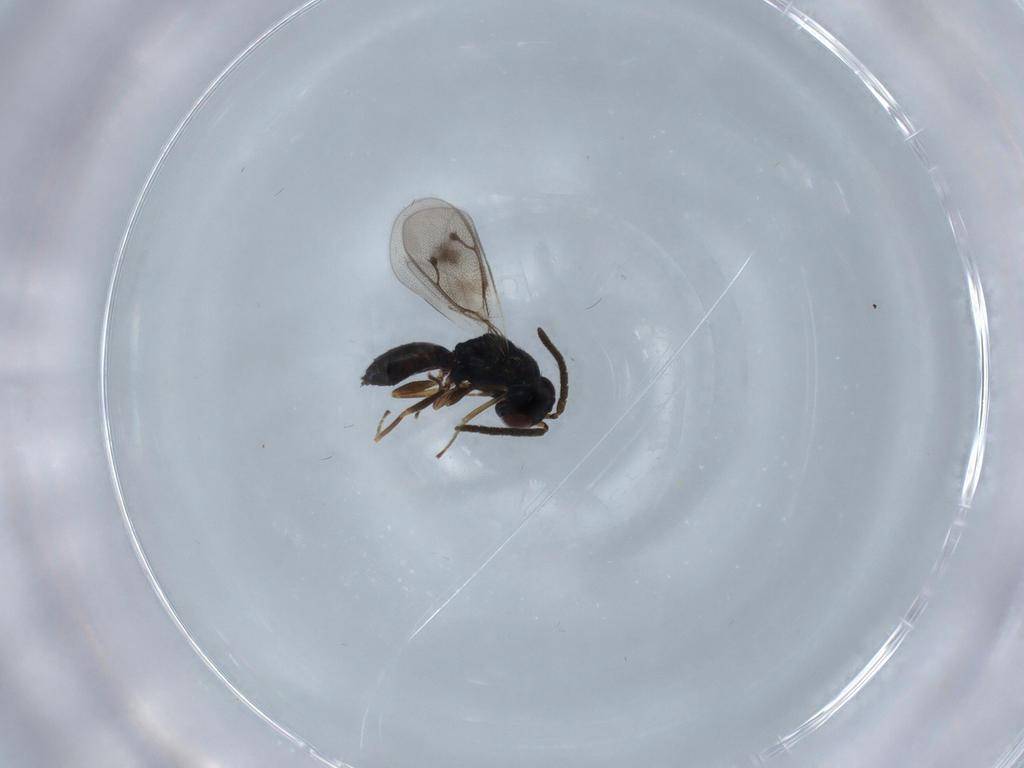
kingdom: Animalia
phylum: Arthropoda
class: Insecta
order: Hymenoptera
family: Pteromalidae
